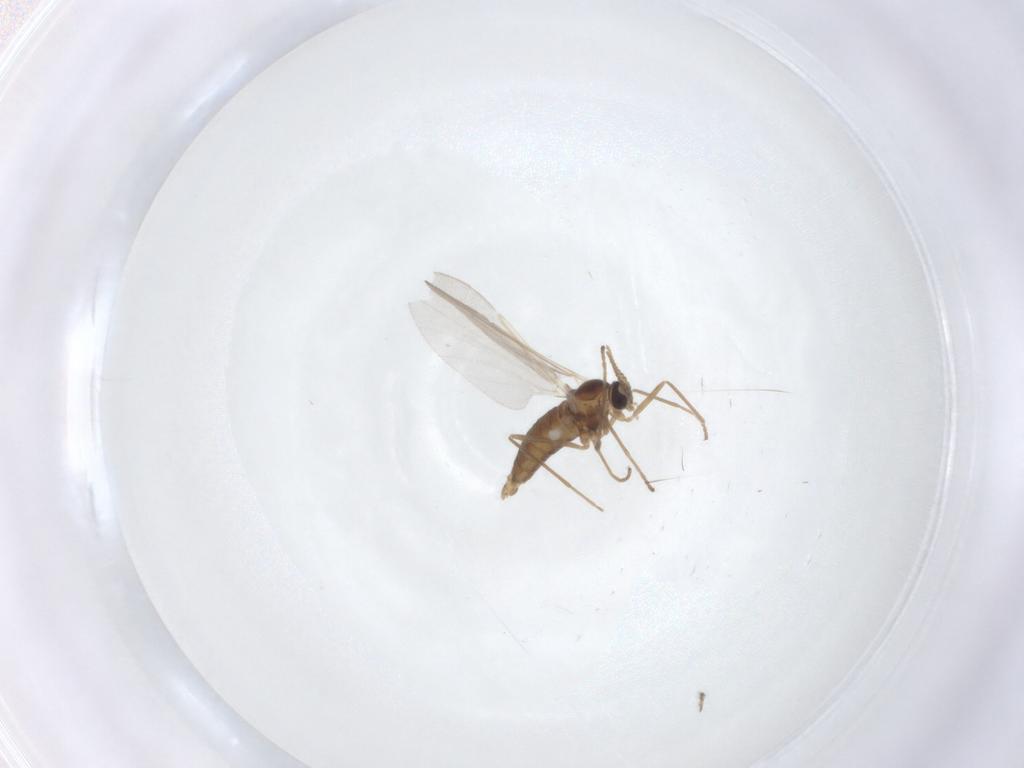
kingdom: Animalia
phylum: Arthropoda
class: Insecta
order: Diptera
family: Cecidomyiidae
